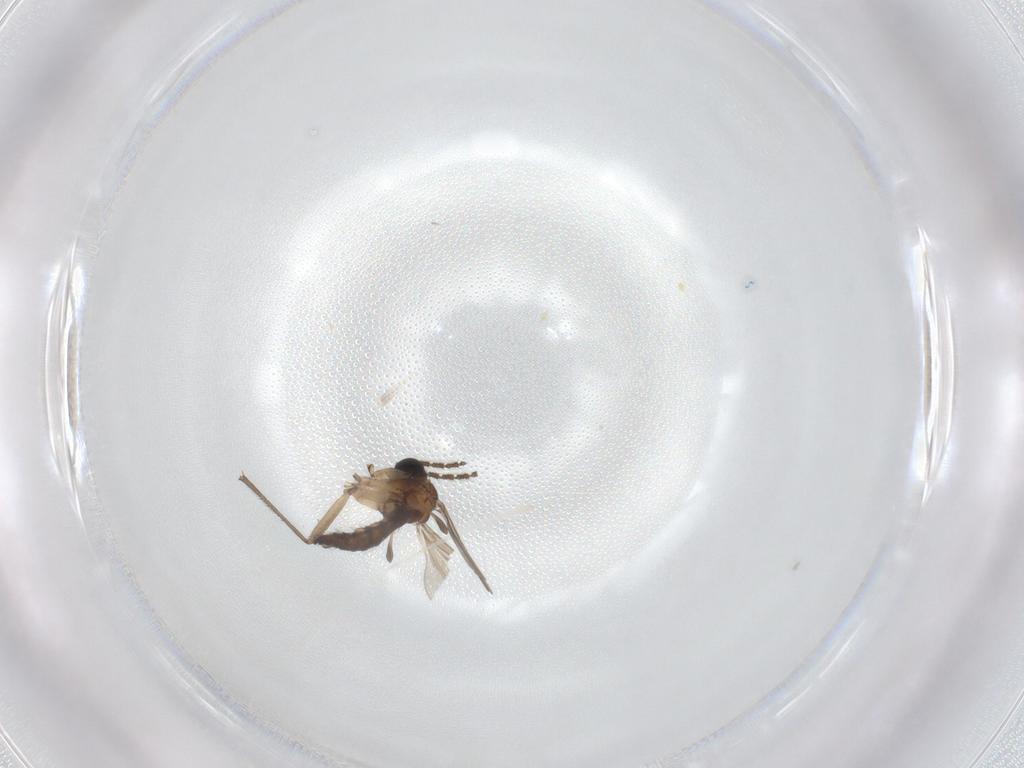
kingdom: Animalia
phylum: Arthropoda
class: Insecta
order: Diptera
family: Sciaridae
